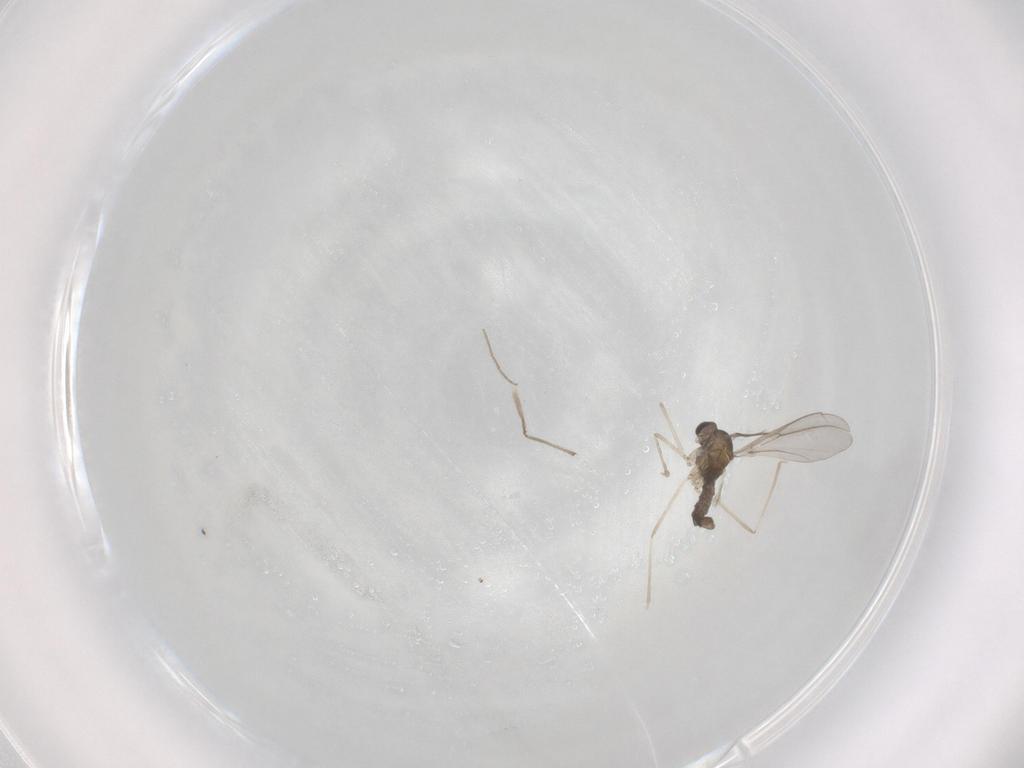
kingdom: Animalia
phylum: Arthropoda
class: Insecta
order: Diptera
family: Cecidomyiidae
